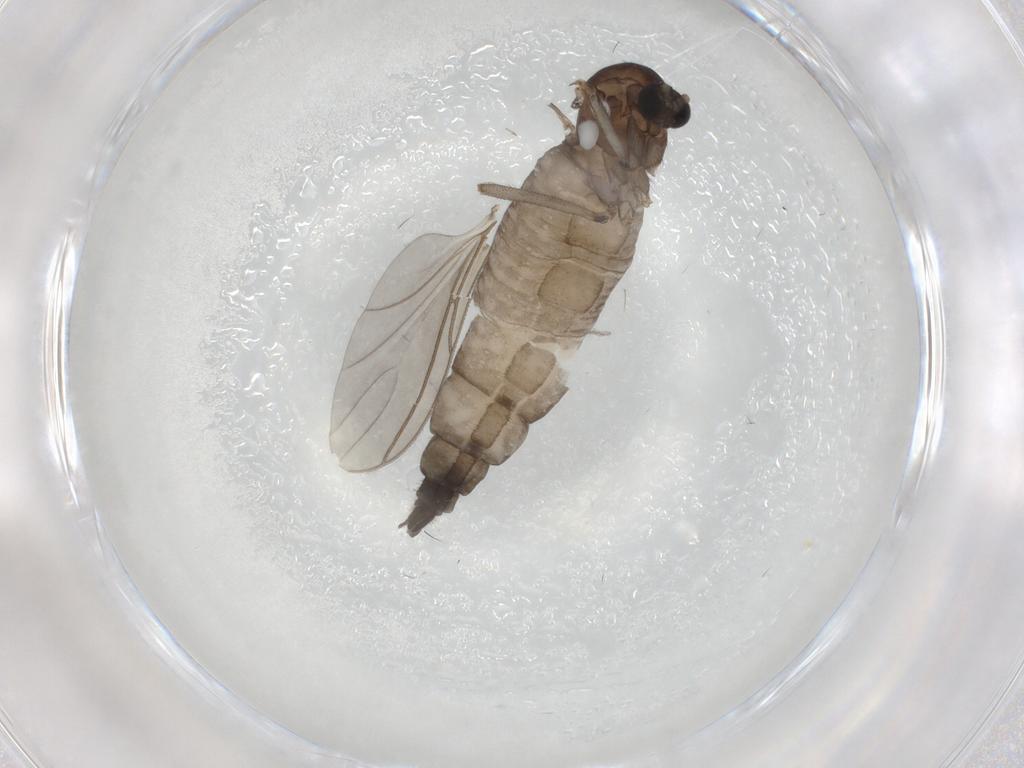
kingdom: Animalia
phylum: Arthropoda
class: Insecta
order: Diptera
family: Sciaridae
